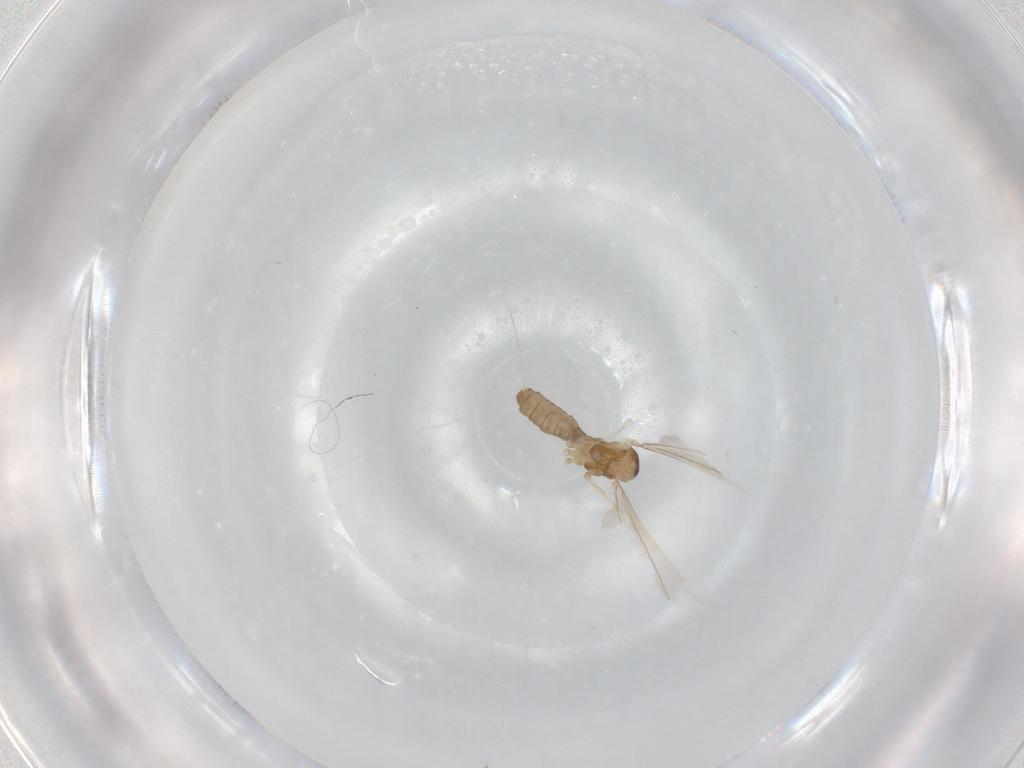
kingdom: Animalia
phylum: Arthropoda
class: Insecta
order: Diptera
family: Cecidomyiidae
